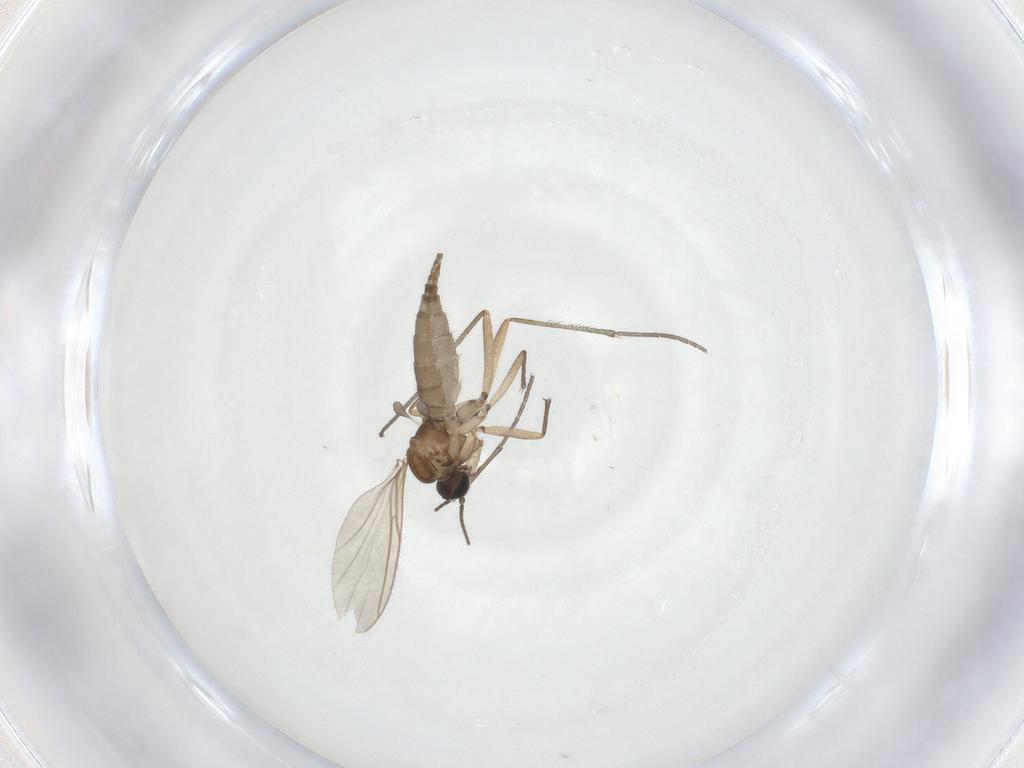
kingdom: Animalia
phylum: Arthropoda
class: Insecta
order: Diptera
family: Sciaridae
